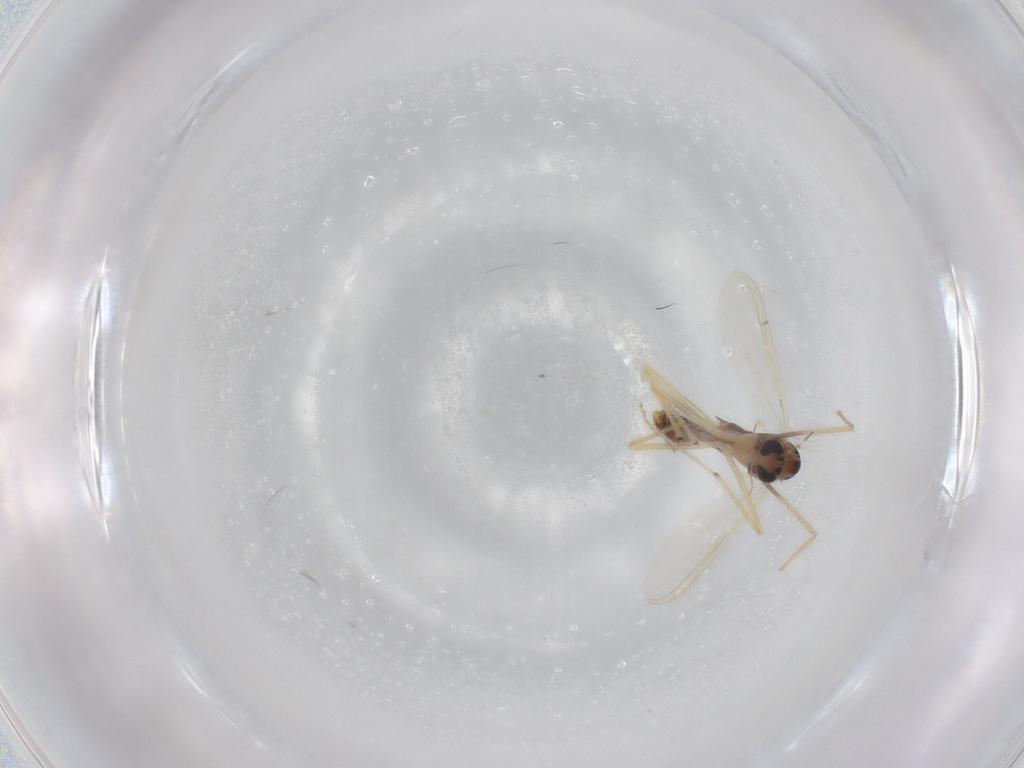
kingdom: Animalia
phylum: Arthropoda
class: Insecta
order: Diptera
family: Chironomidae
